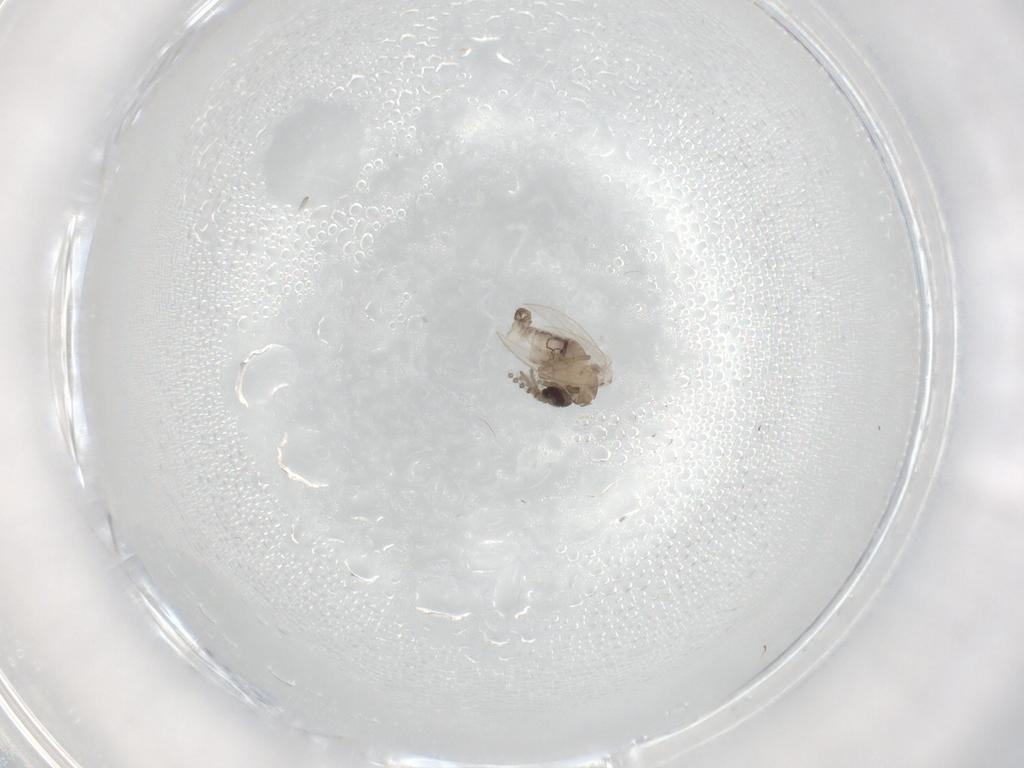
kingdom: Animalia
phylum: Arthropoda
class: Insecta
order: Diptera
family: Psychodidae
